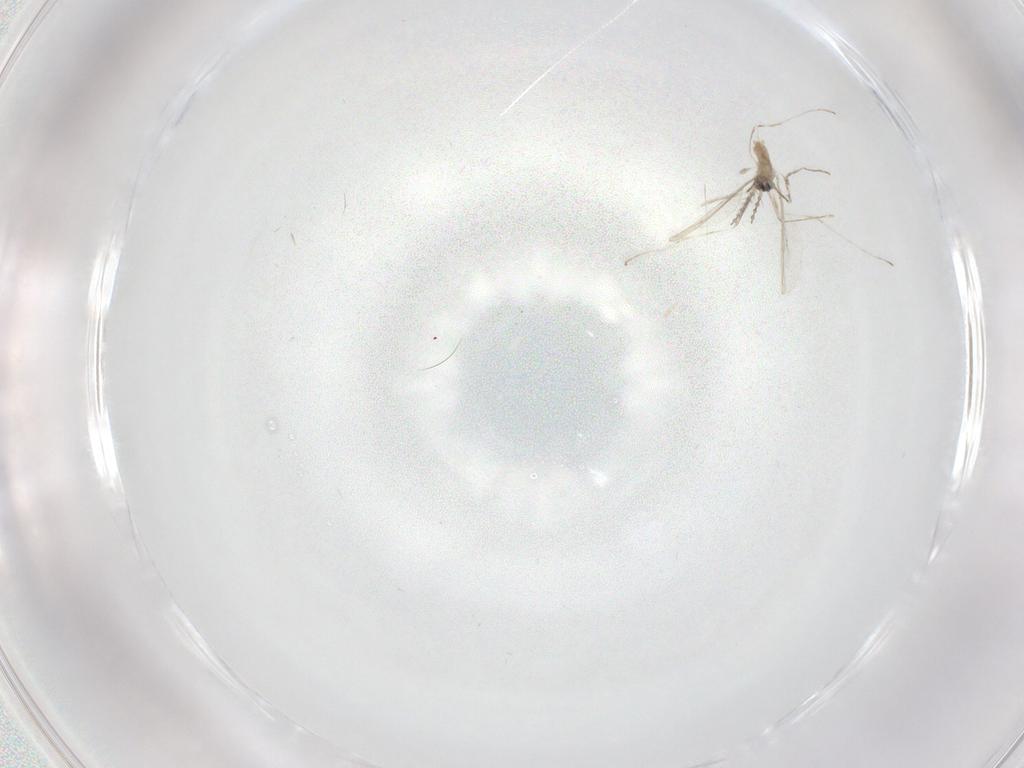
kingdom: Animalia
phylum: Arthropoda
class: Insecta
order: Diptera
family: Cecidomyiidae
